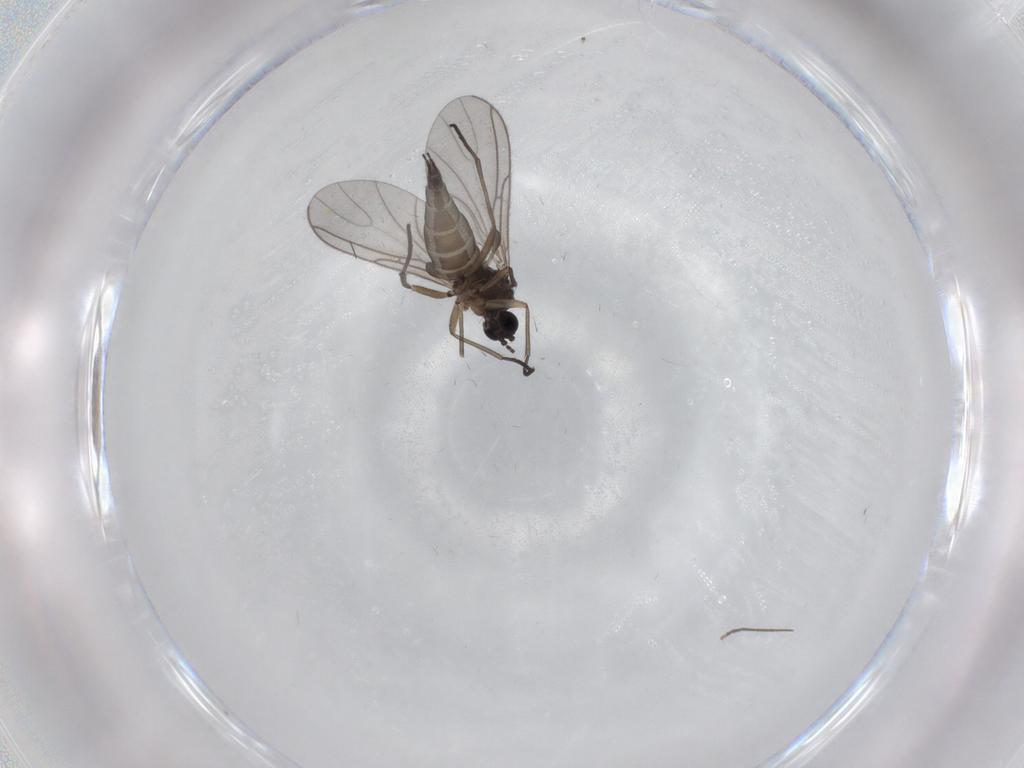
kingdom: Animalia
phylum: Arthropoda
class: Insecta
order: Diptera
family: Sciaridae
